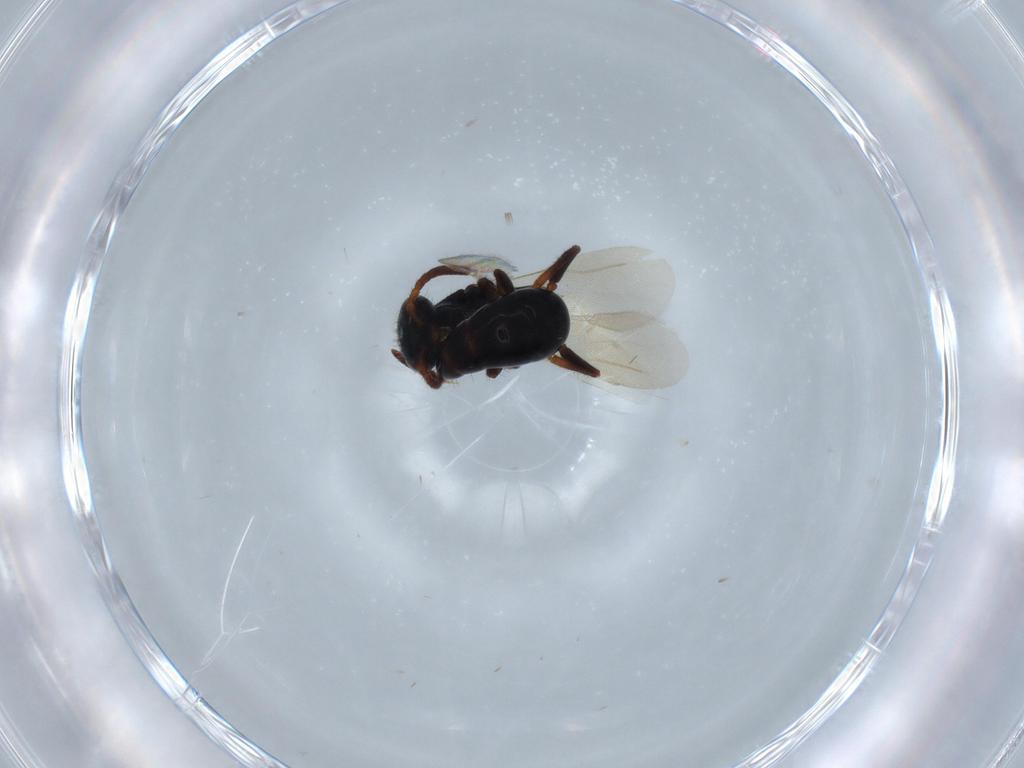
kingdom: Animalia
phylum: Arthropoda
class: Insecta
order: Hymenoptera
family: Bethylidae
